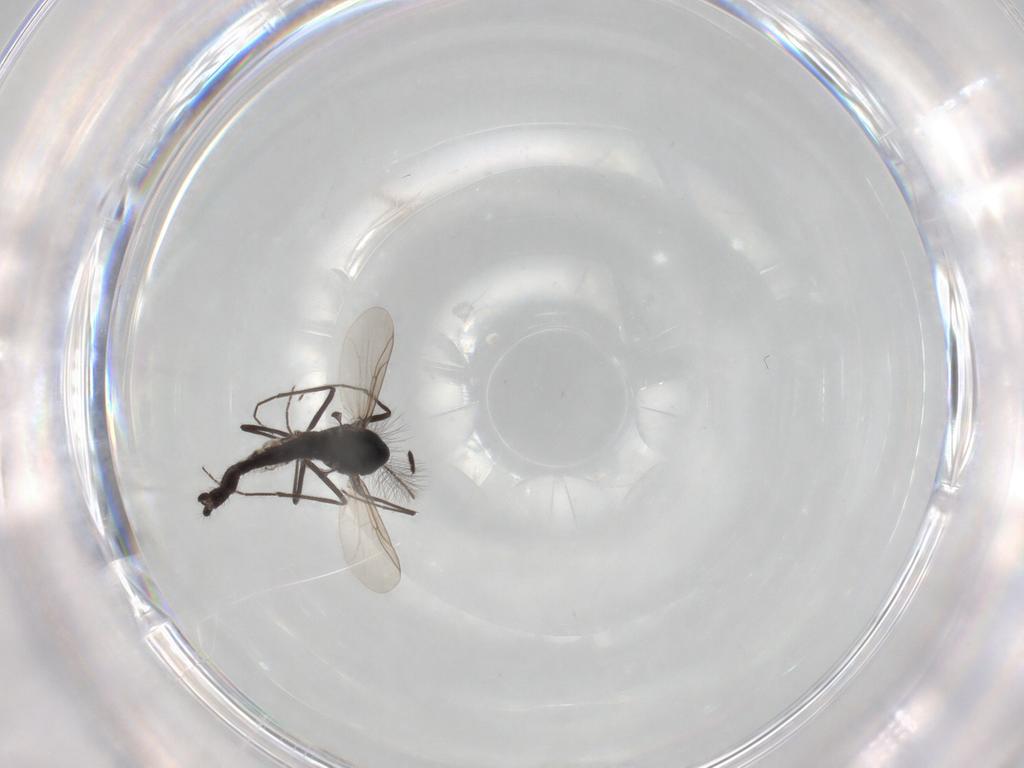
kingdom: Animalia
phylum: Arthropoda
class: Insecta
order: Diptera
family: Chironomidae
